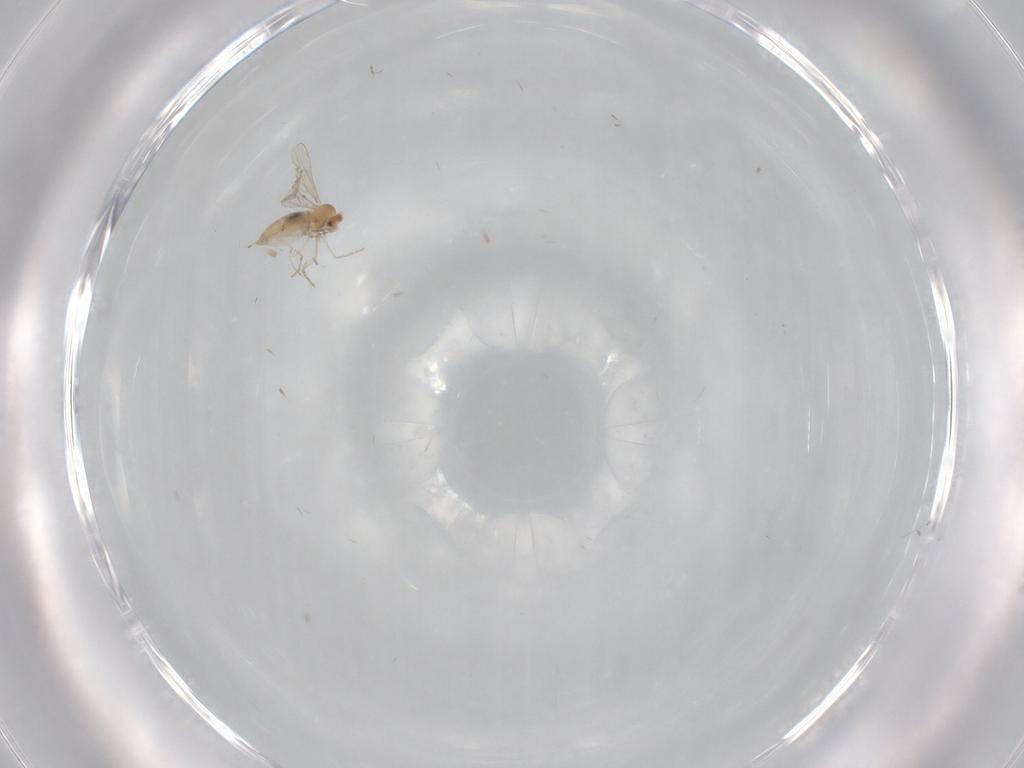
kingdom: Animalia
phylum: Arthropoda
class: Insecta
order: Diptera
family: Cecidomyiidae
